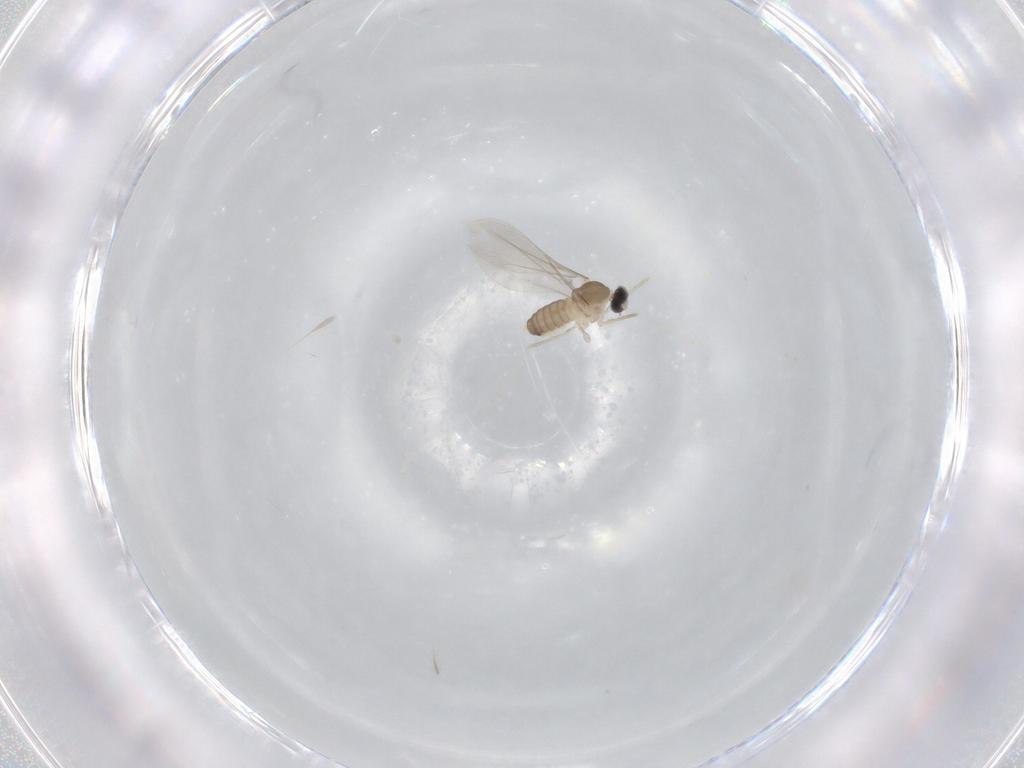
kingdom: Animalia
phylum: Arthropoda
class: Insecta
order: Diptera
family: Cecidomyiidae
